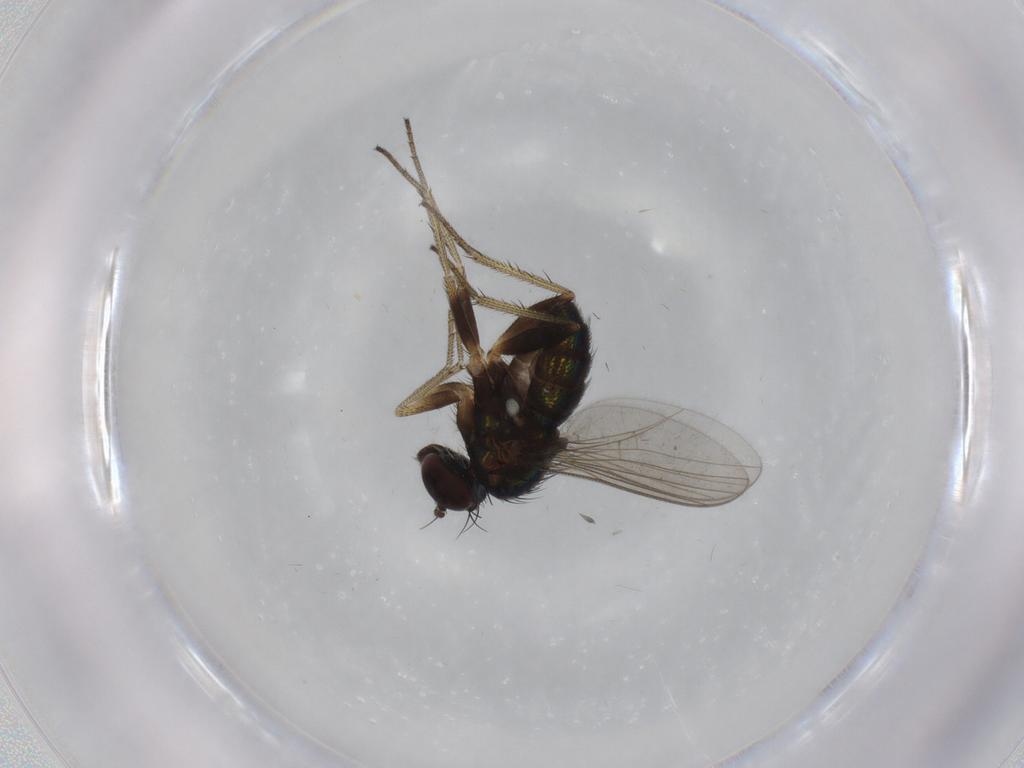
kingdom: Animalia
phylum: Arthropoda
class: Insecta
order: Diptera
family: Dolichopodidae
